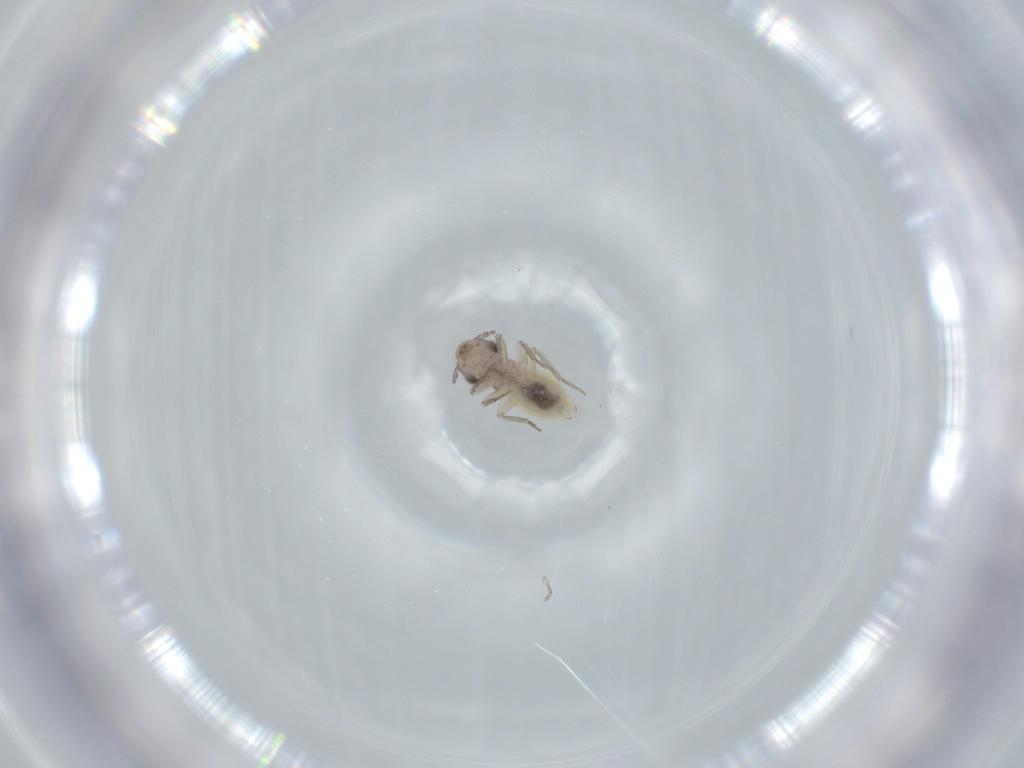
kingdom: Animalia
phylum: Arthropoda
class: Insecta
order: Psocodea
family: Lepidopsocidae
